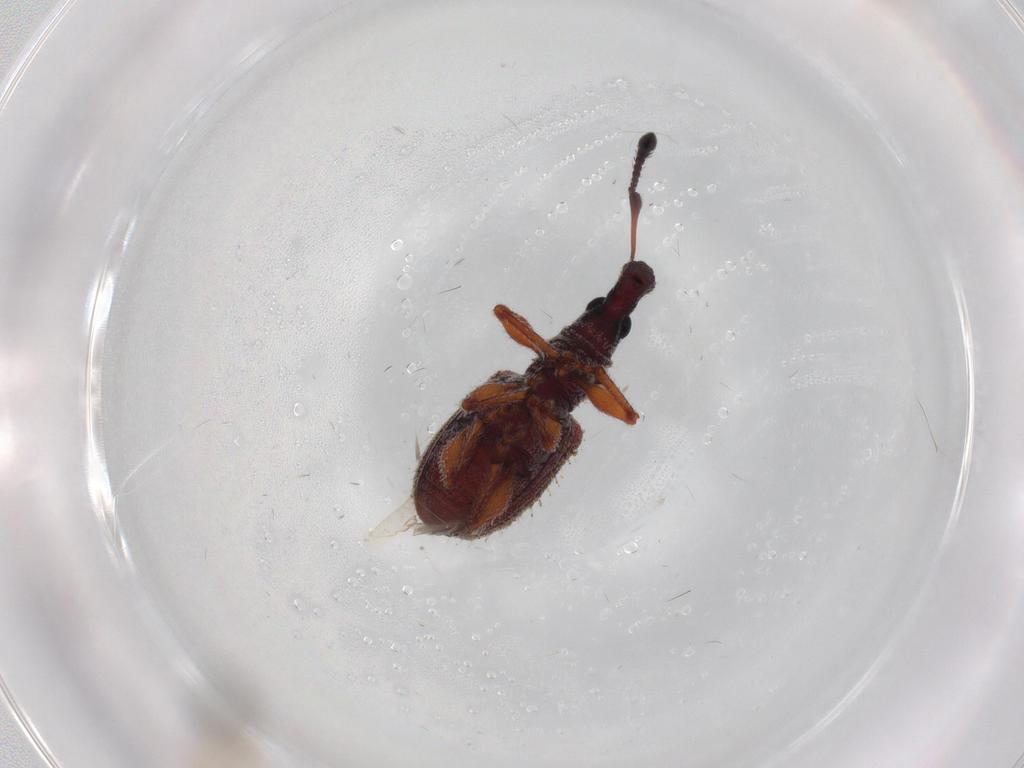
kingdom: Animalia
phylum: Arthropoda
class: Insecta
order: Coleoptera
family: Curculionidae
